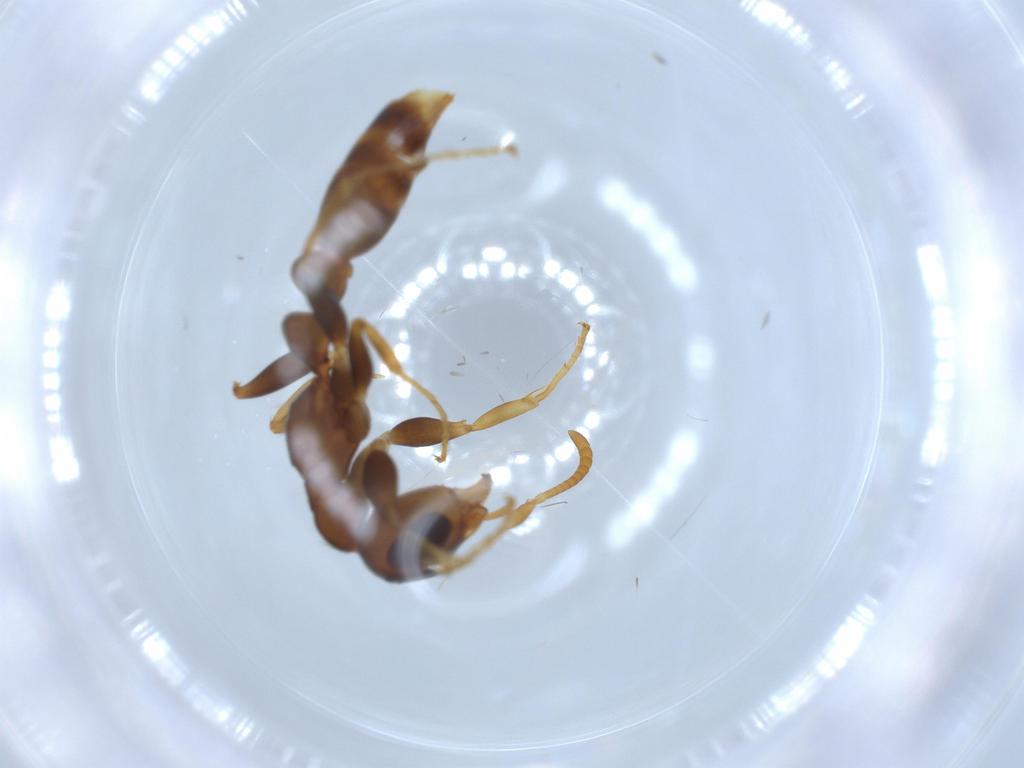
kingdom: Animalia
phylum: Arthropoda
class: Insecta
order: Hymenoptera
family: Formicidae
